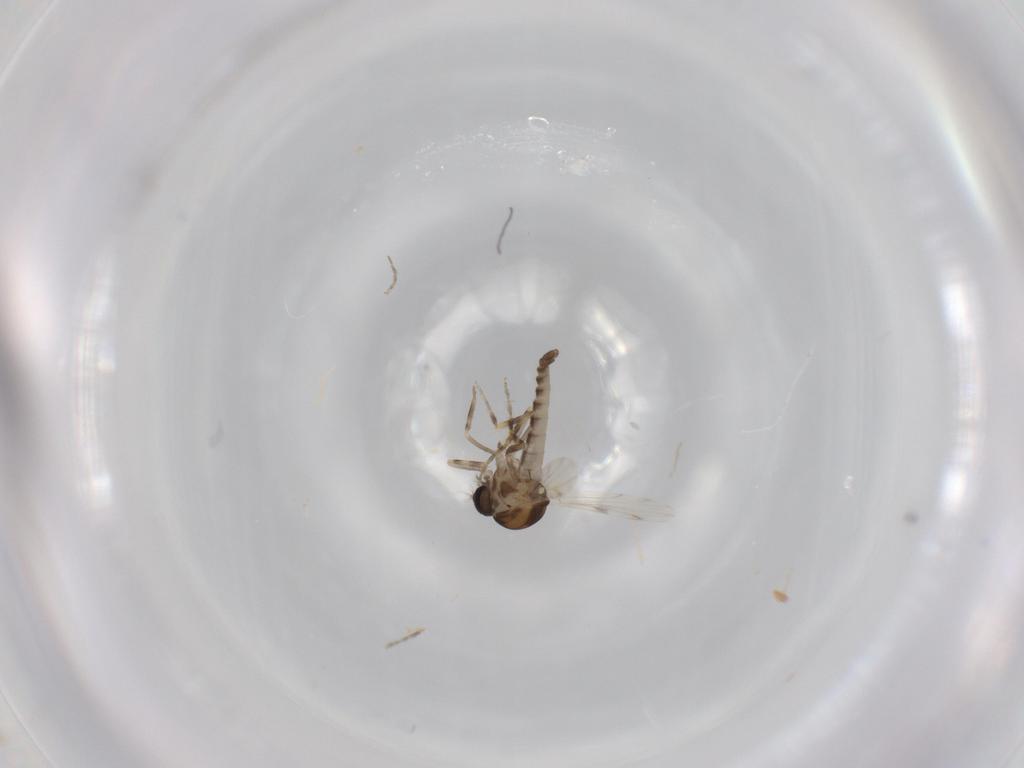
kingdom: Animalia
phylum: Arthropoda
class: Insecta
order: Diptera
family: Ceratopogonidae
